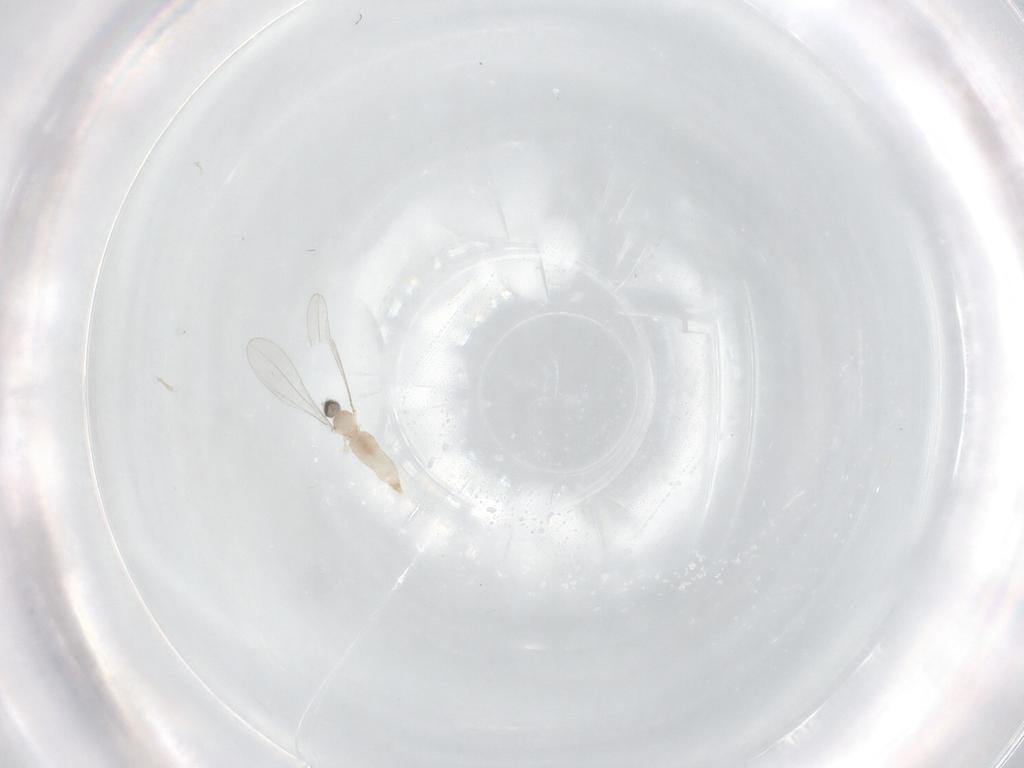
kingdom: Animalia
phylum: Arthropoda
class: Insecta
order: Diptera
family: Cecidomyiidae
